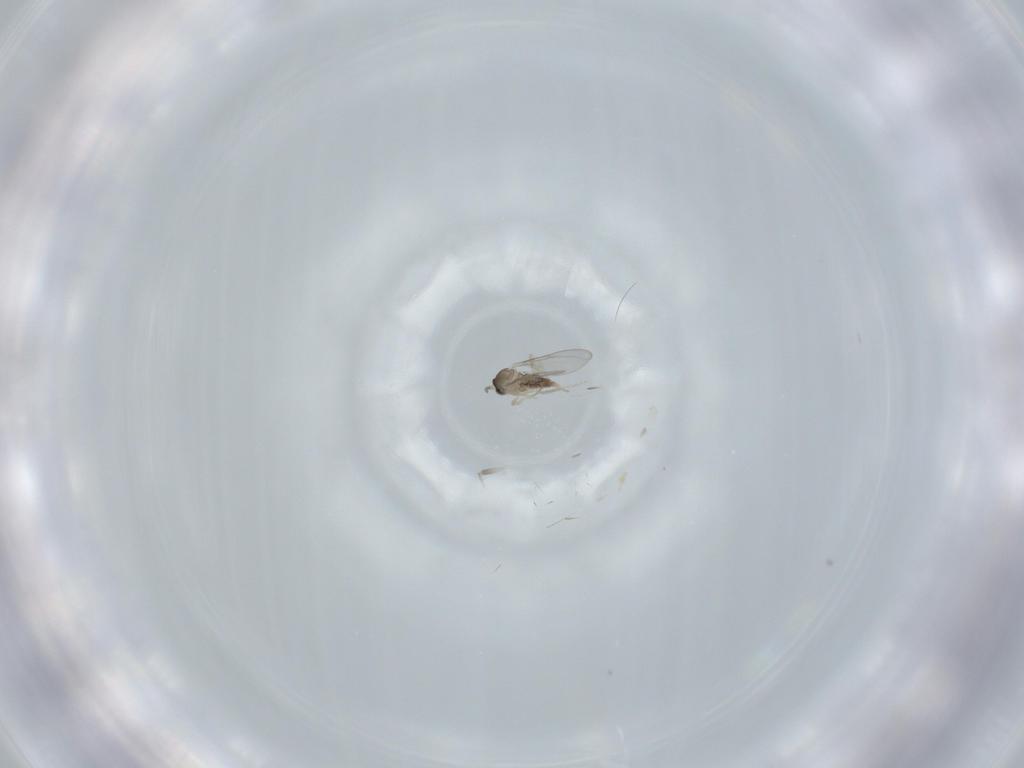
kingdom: Animalia
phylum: Arthropoda
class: Insecta
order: Diptera
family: Cecidomyiidae
